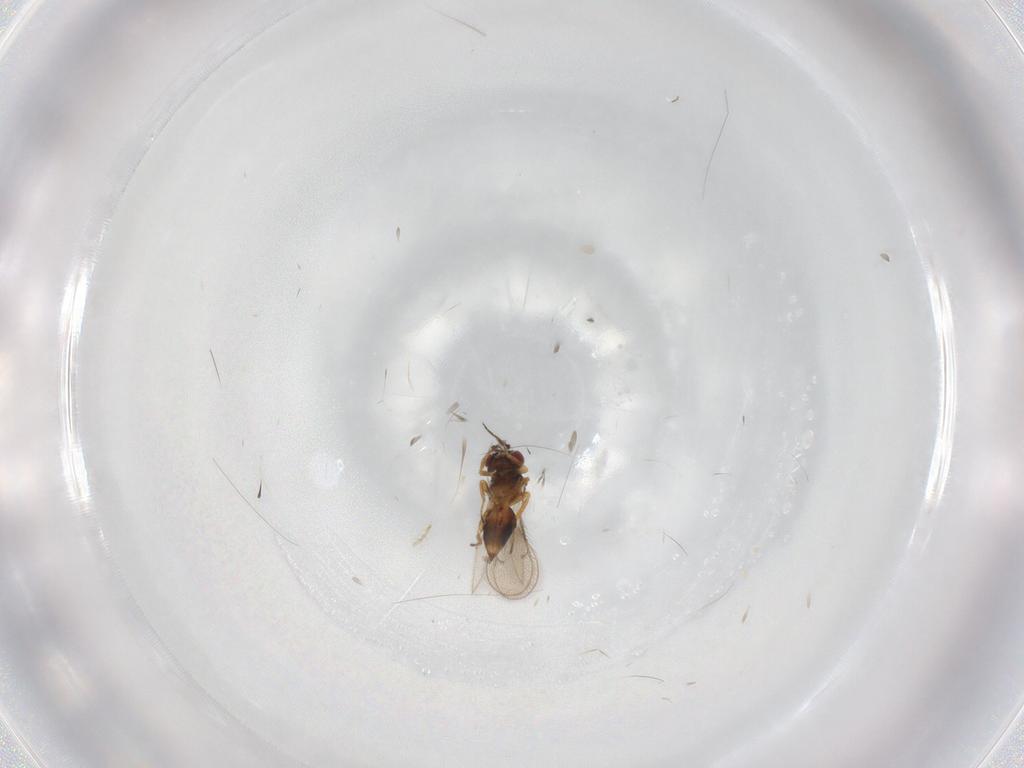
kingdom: Animalia
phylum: Arthropoda
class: Insecta
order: Hymenoptera
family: Eulophidae
